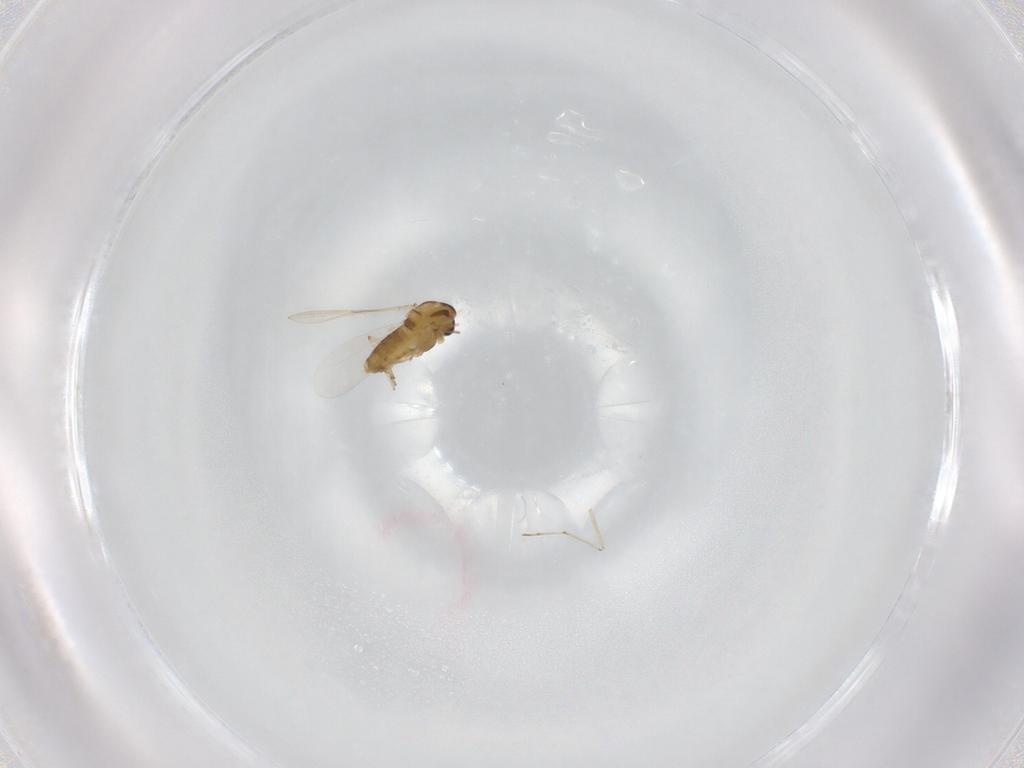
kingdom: Animalia
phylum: Arthropoda
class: Insecta
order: Diptera
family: Chironomidae
